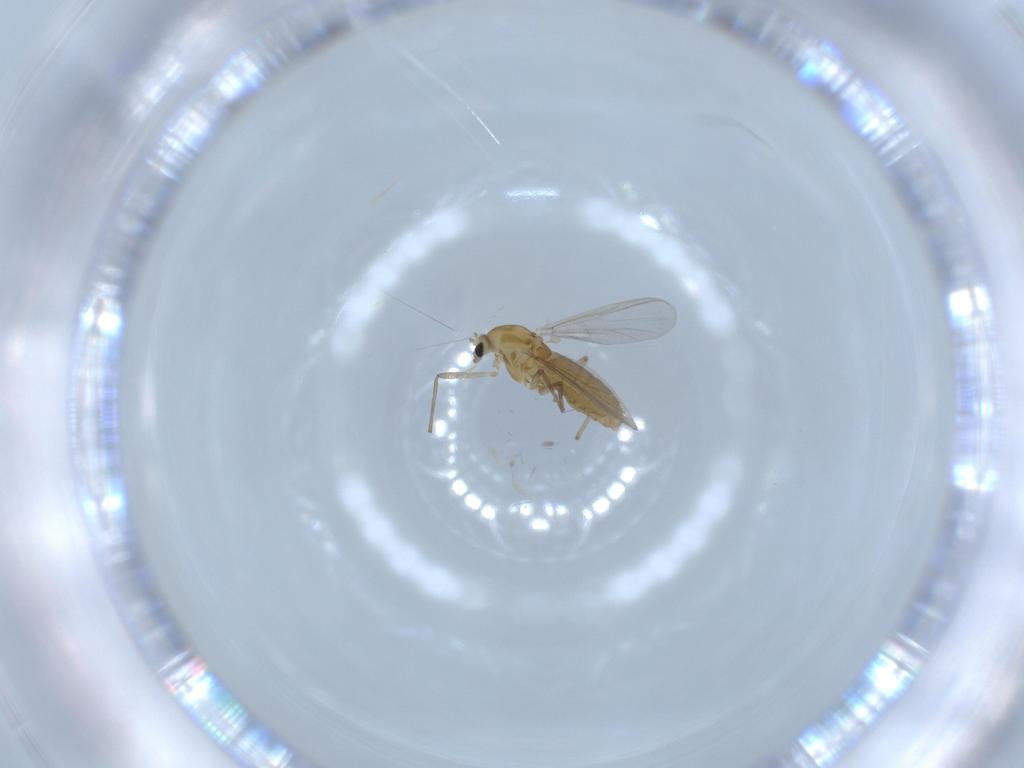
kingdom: Animalia
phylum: Arthropoda
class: Insecta
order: Diptera
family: Chironomidae
